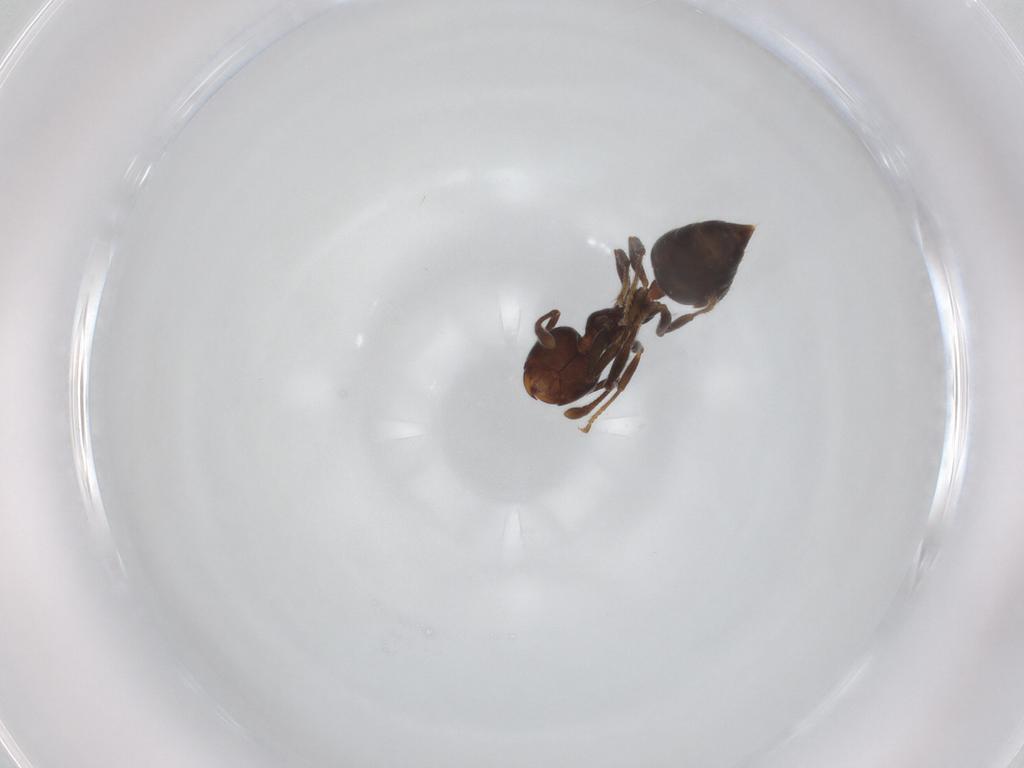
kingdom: Animalia
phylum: Arthropoda
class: Insecta
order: Hymenoptera
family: Formicidae
